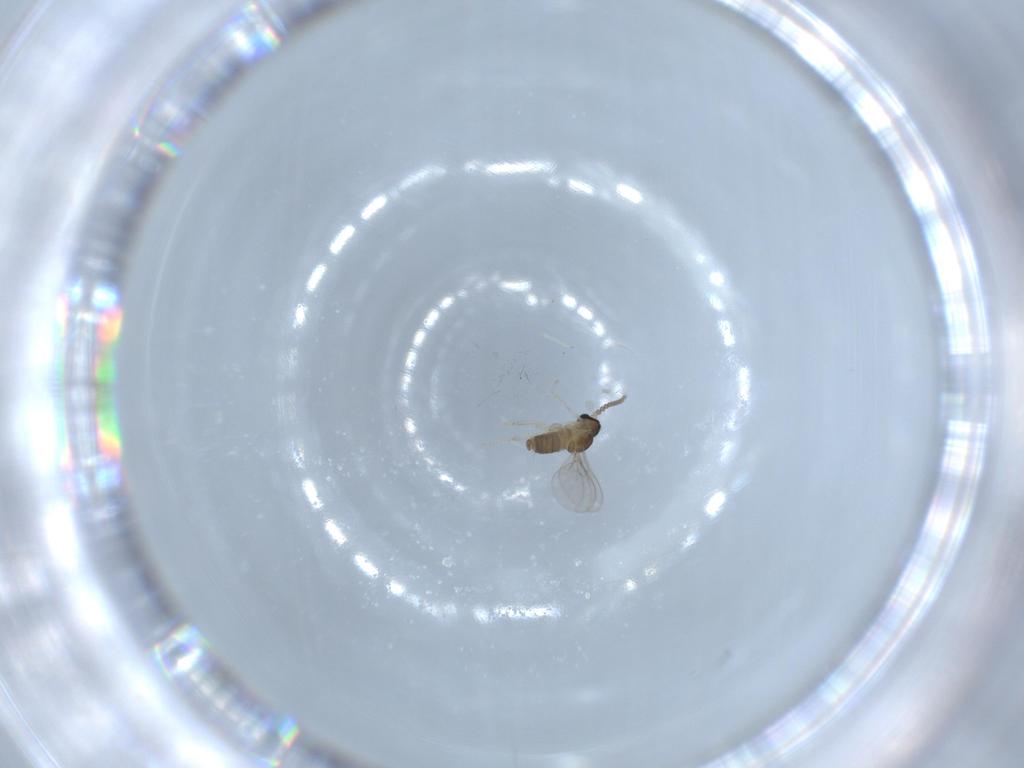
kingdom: Animalia
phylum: Arthropoda
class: Insecta
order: Diptera
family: Cecidomyiidae
